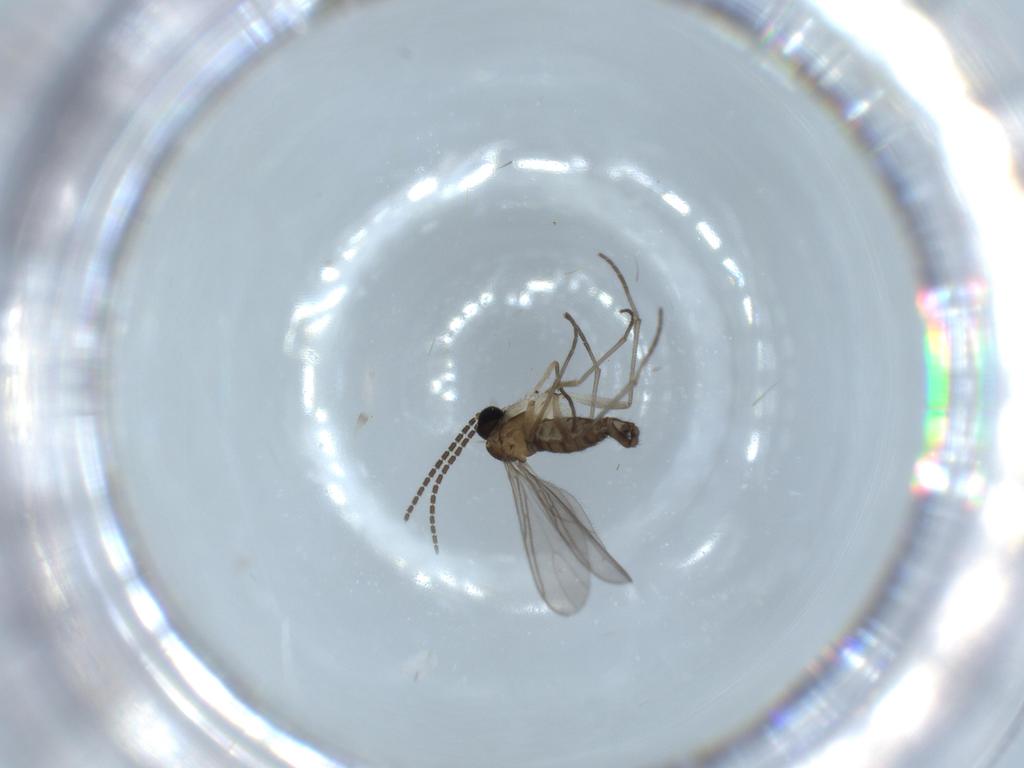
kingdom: Animalia
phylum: Arthropoda
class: Insecta
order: Diptera
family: Sciaridae
